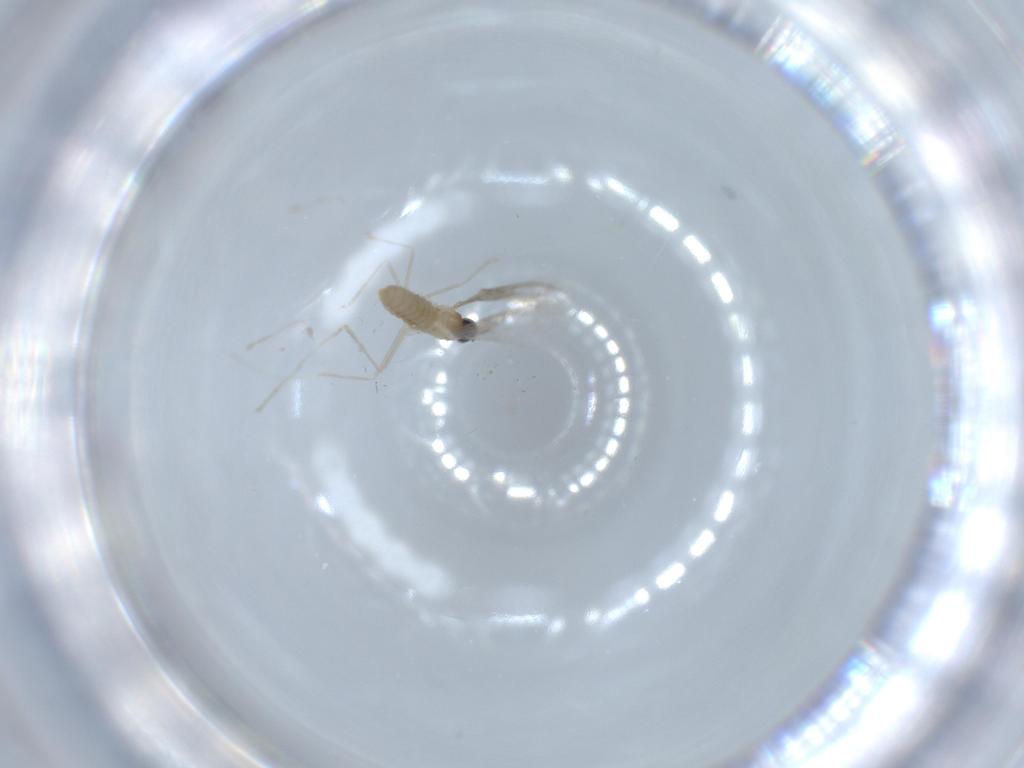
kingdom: Animalia
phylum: Arthropoda
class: Insecta
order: Diptera
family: Cecidomyiidae
